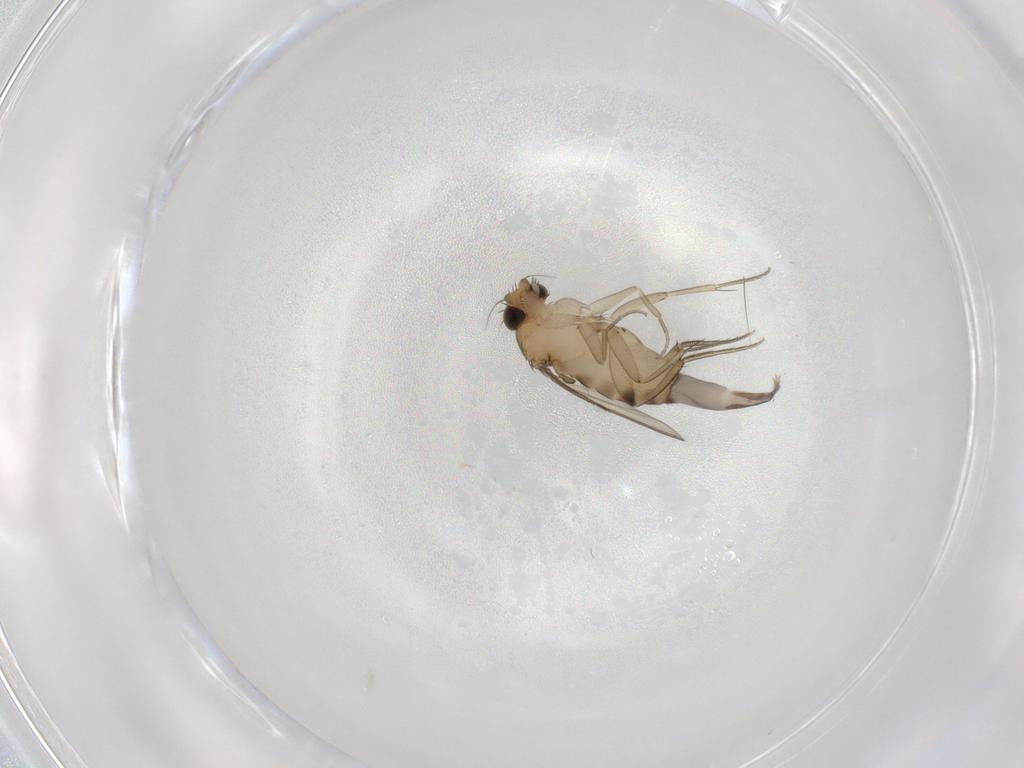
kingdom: Animalia
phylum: Arthropoda
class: Insecta
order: Diptera
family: Phoridae
